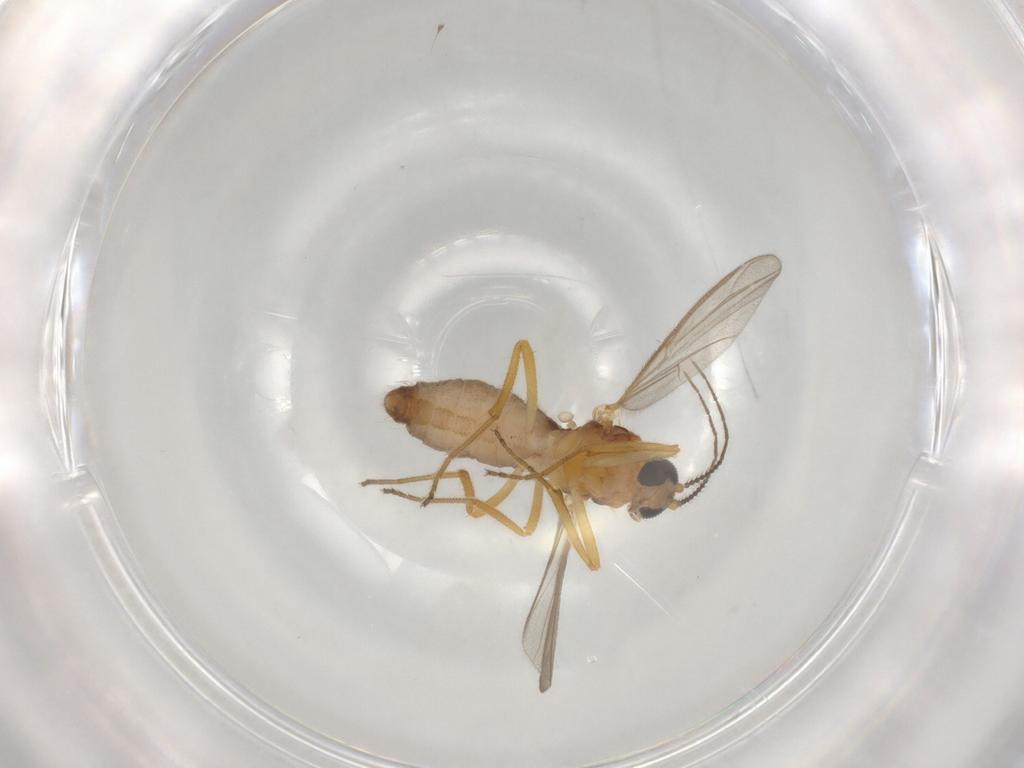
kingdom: Animalia
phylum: Arthropoda
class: Insecta
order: Diptera
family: Ceratopogonidae
